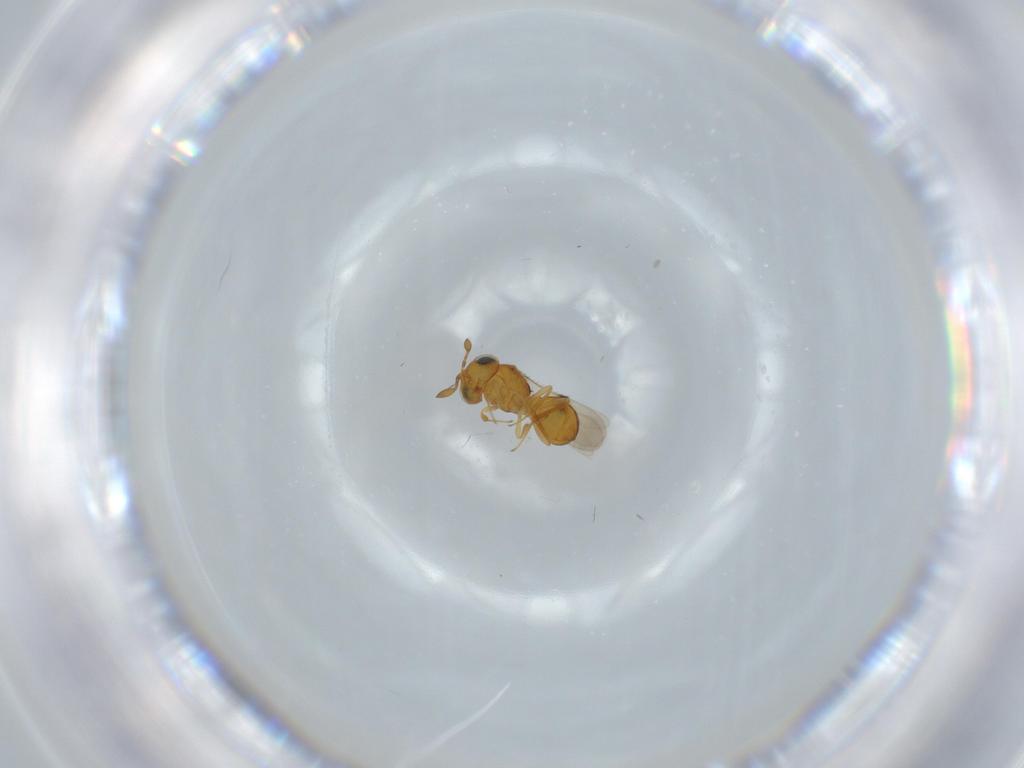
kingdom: Animalia
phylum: Arthropoda
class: Insecta
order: Hymenoptera
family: Scelionidae
